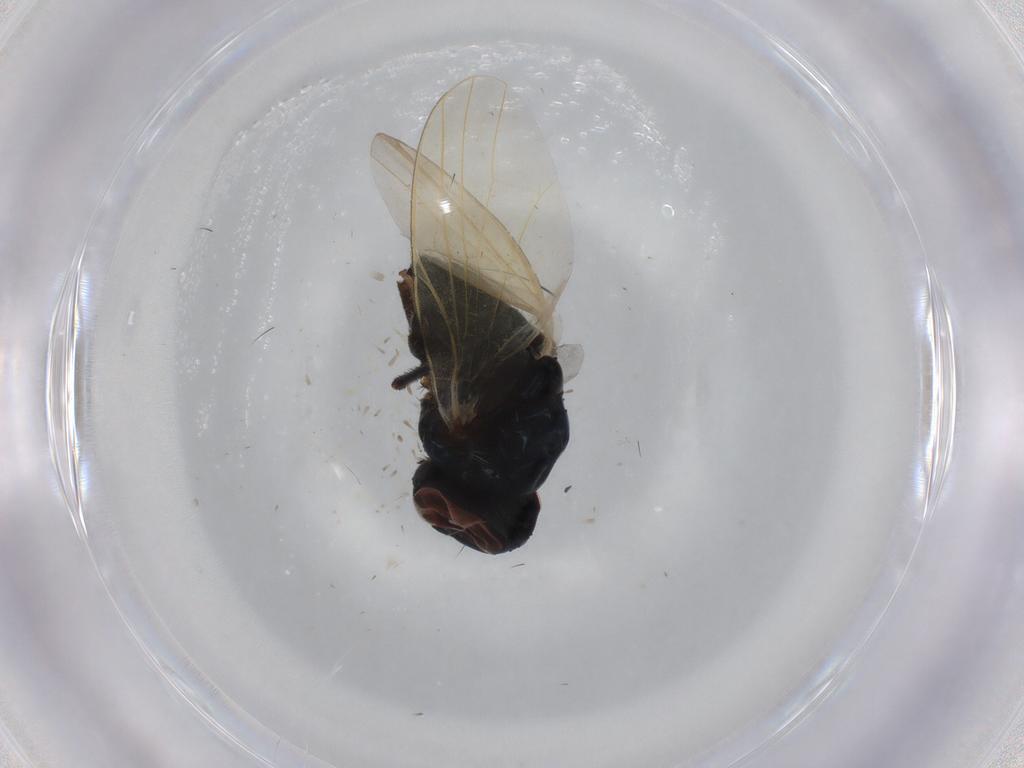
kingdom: Animalia
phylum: Arthropoda
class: Insecta
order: Diptera
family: Lonchaeidae
